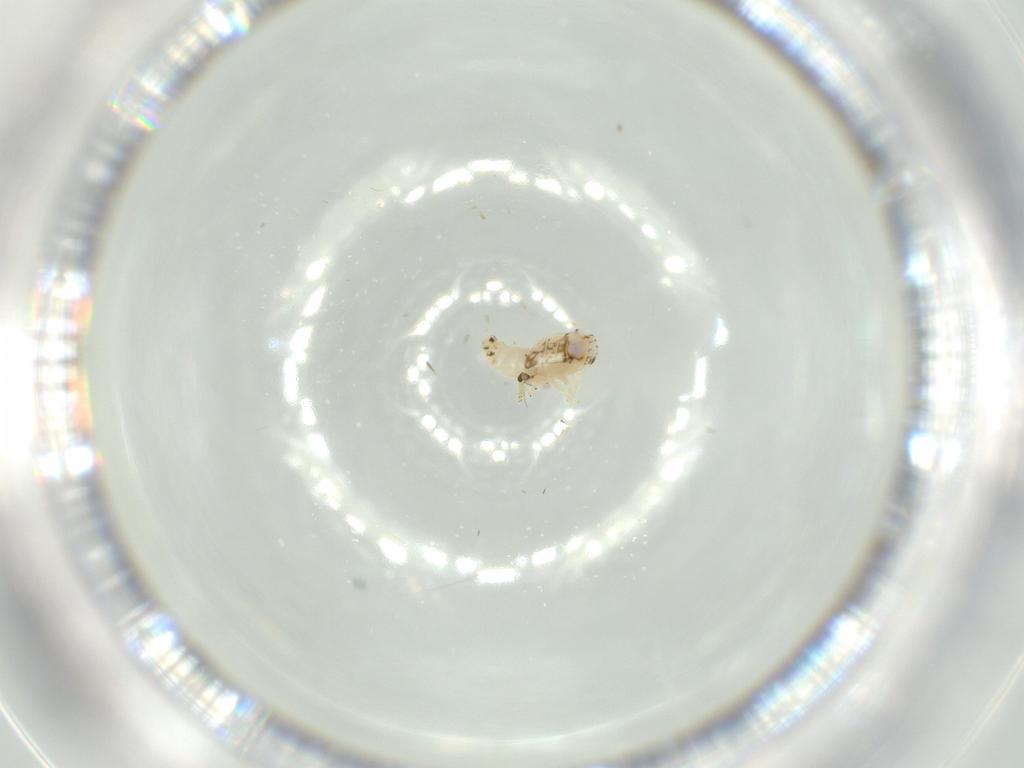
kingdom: Animalia
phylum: Arthropoda
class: Insecta
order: Hemiptera
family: Nogodinidae
